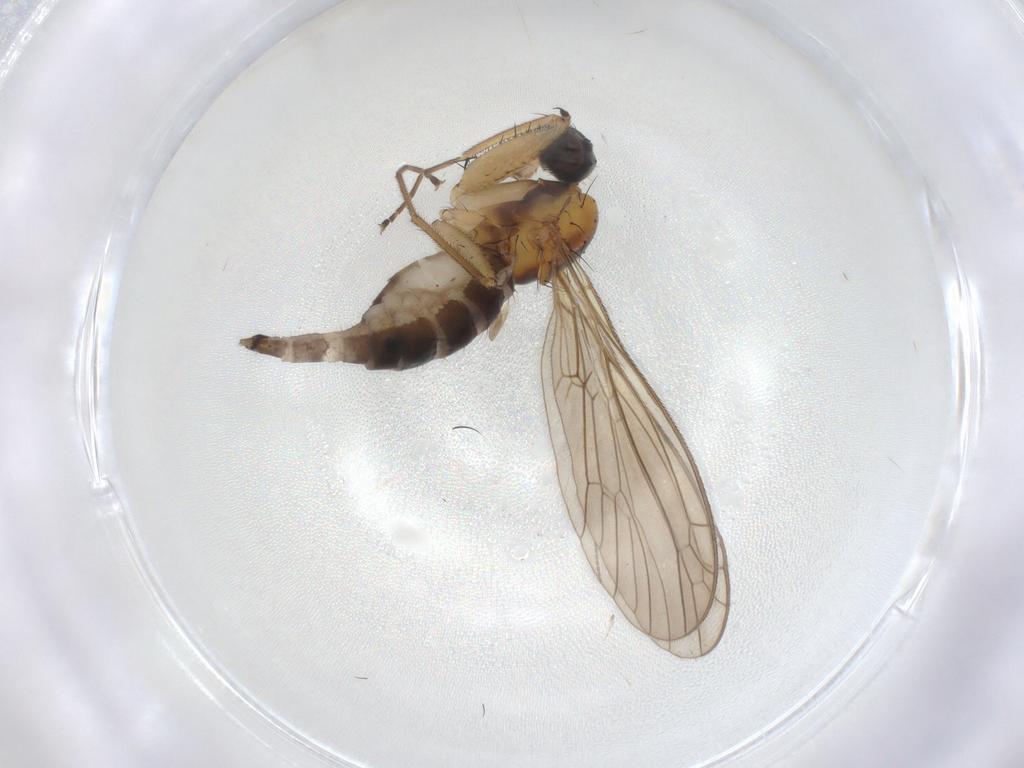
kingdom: Animalia
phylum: Arthropoda
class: Insecta
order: Diptera
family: Empididae
